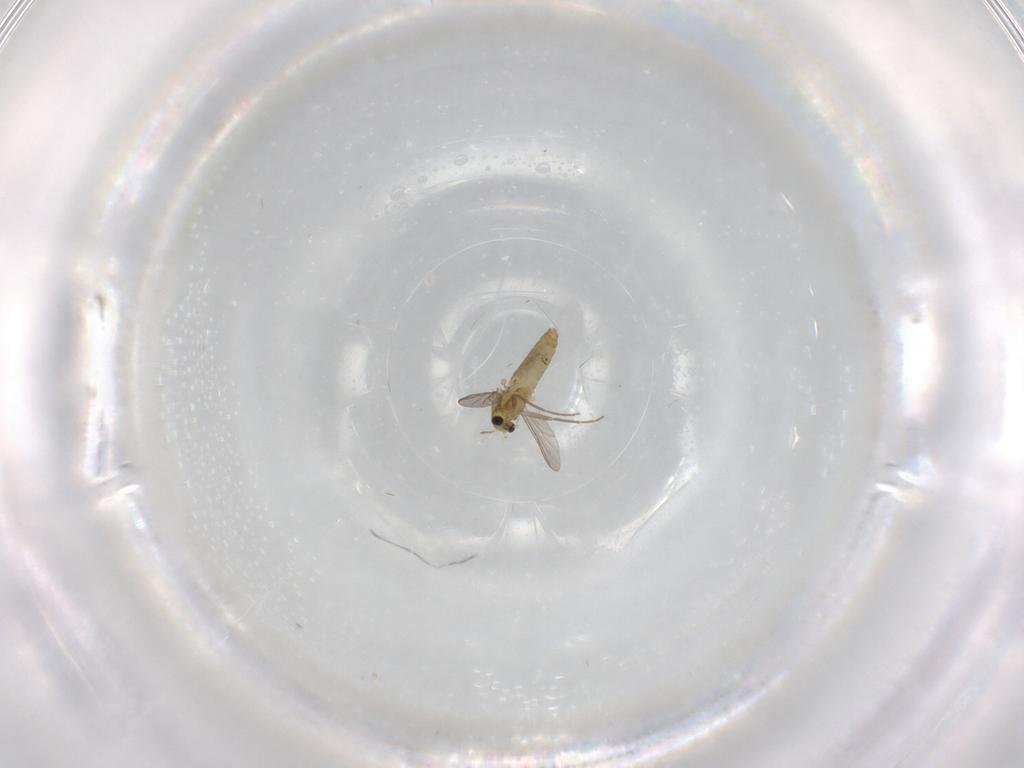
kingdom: Animalia
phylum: Arthropoda
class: Insecta
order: Diptera
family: Chironomidae
